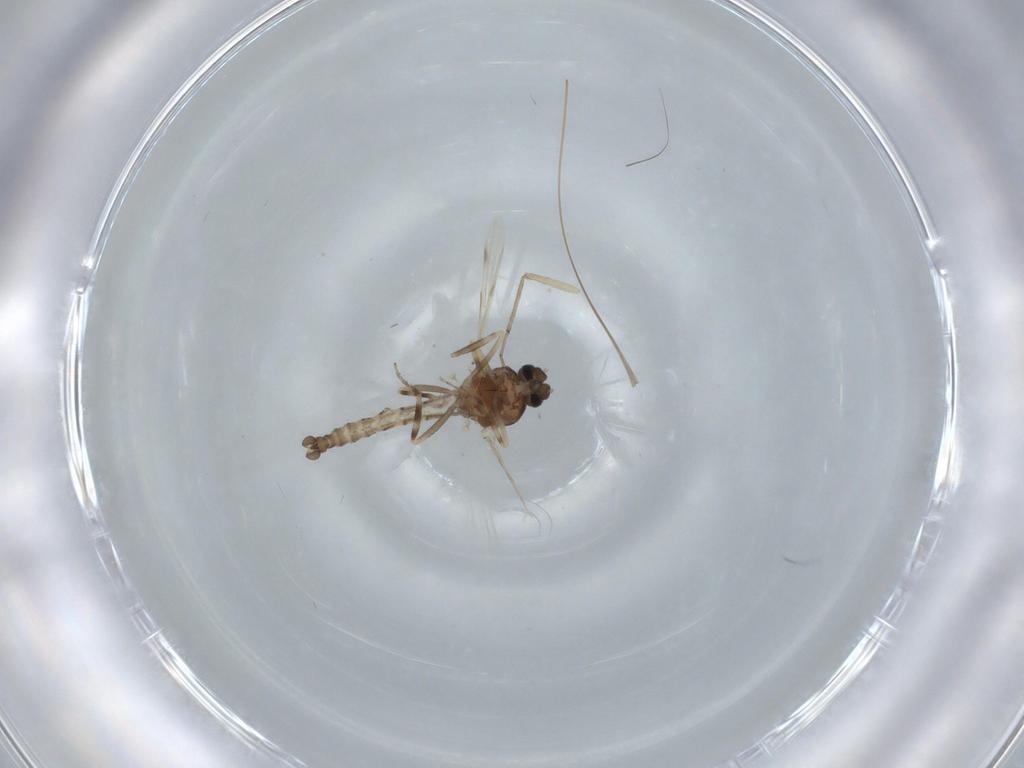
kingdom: Animalia
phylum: Arthropoda
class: Insecta
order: Diptera
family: Ceratopogonidae
